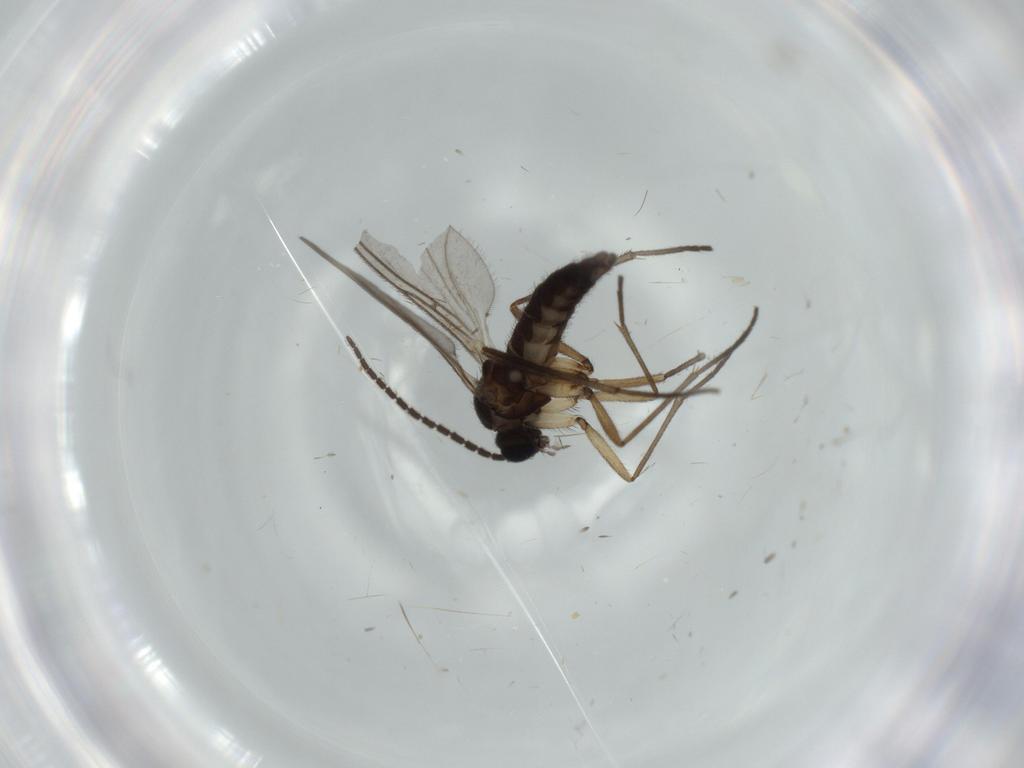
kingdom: Animalia
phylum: Arthropoda
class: Insecta
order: Diptera
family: Sciaridae
